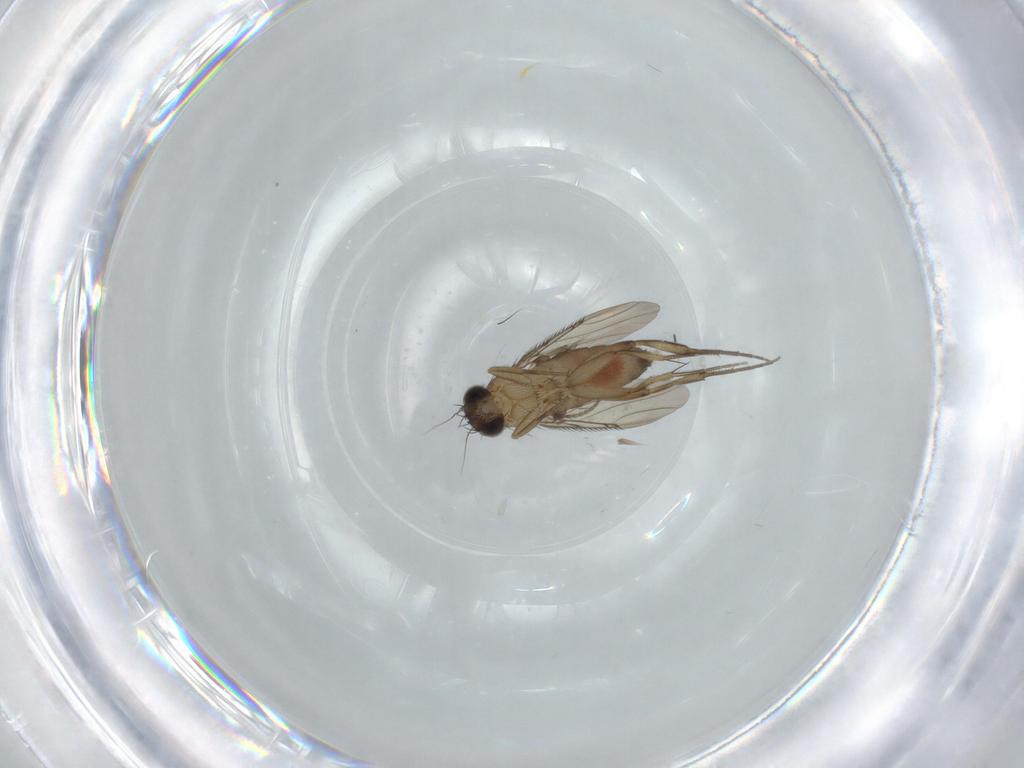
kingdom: Animalia
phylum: Arthropoda
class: Insecta
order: Diptera
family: Phoridae
